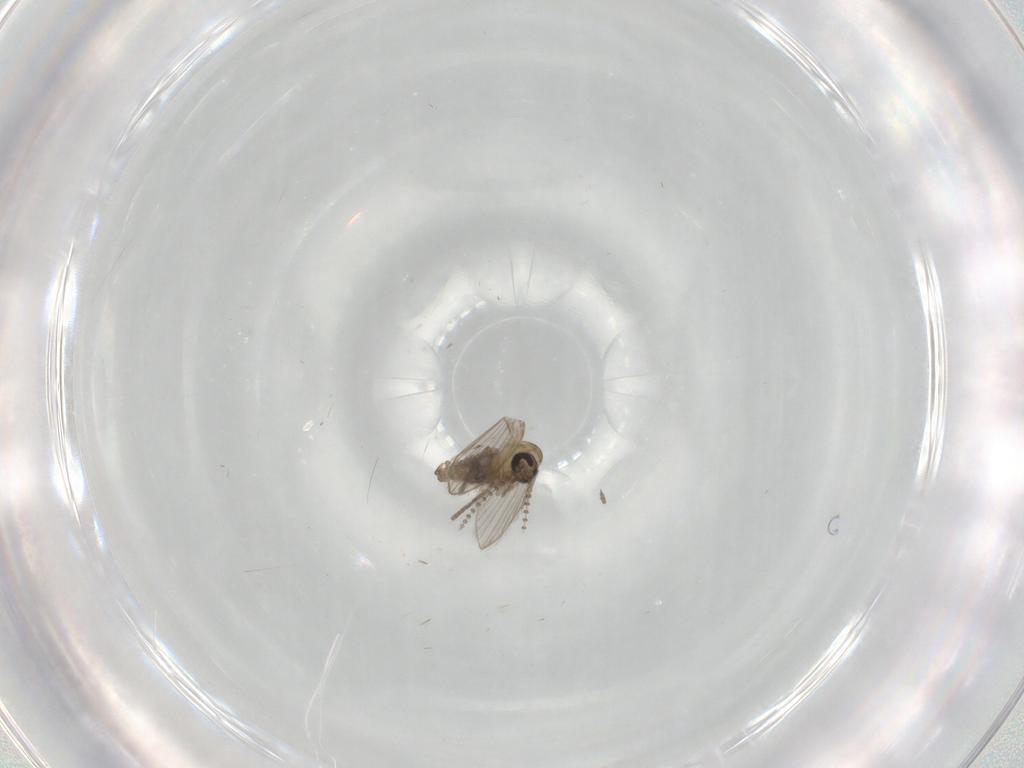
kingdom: Animalia
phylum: Arthropoda
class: Insecta
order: Diptera
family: Psychodidae
